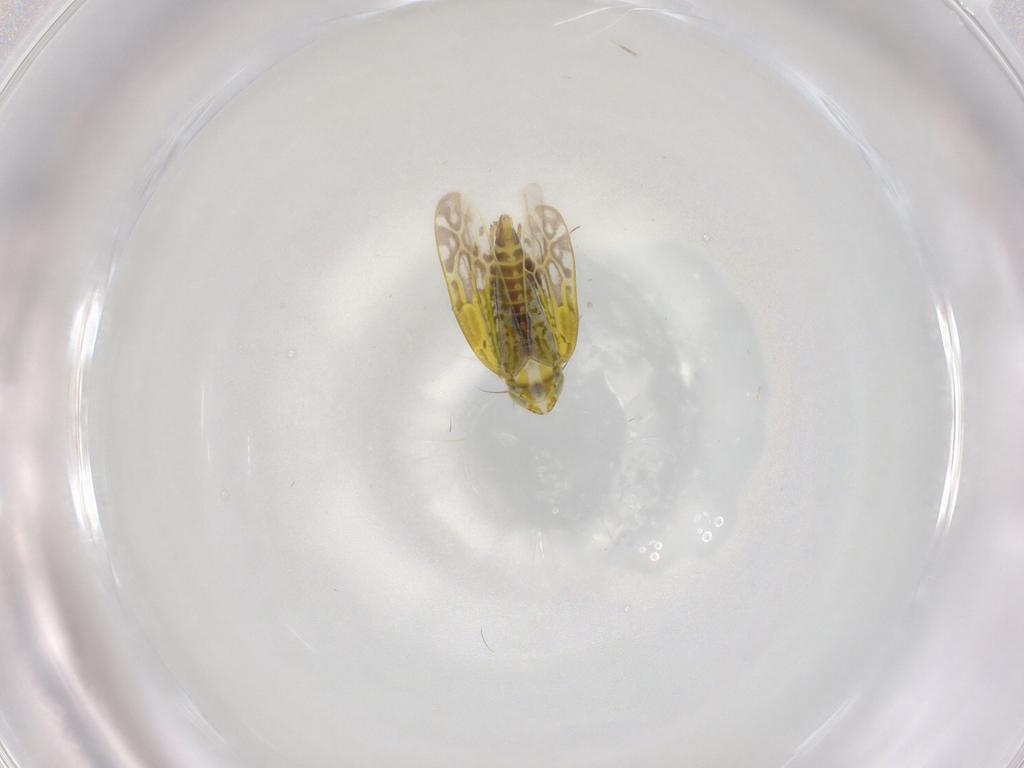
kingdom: Animalia
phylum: Arthropoda
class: Insecta
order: Hemiptera
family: Cicadellidae
